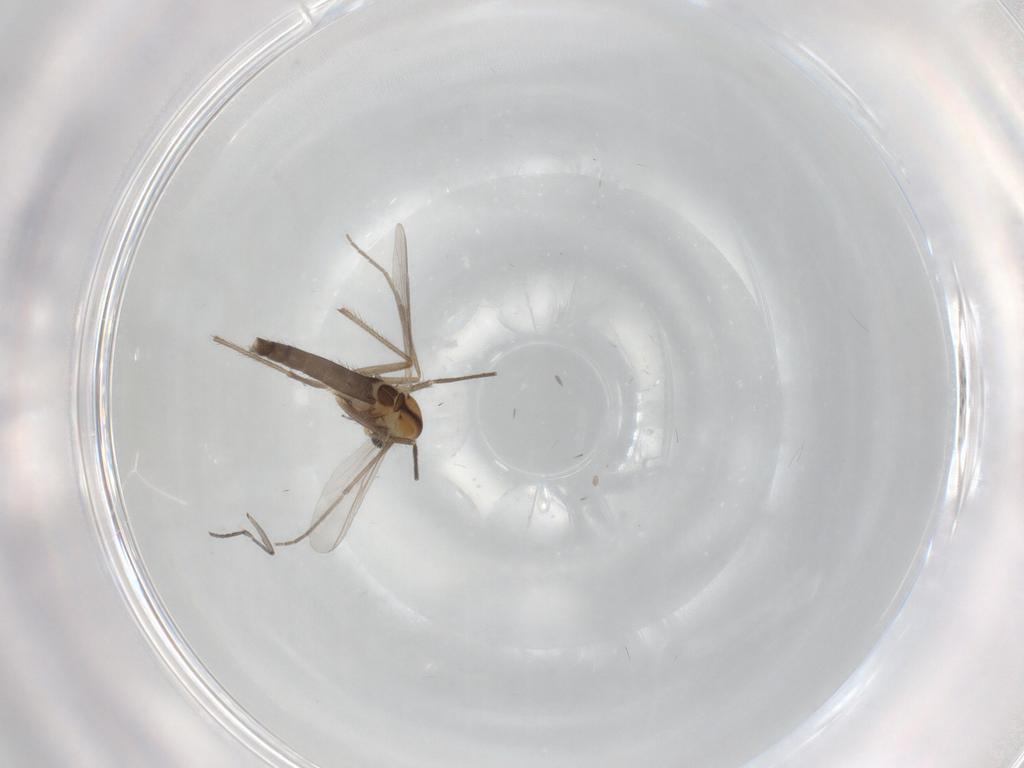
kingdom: Animalia
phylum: Arthropoda
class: Insecta
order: Diptera
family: Chironomidae
